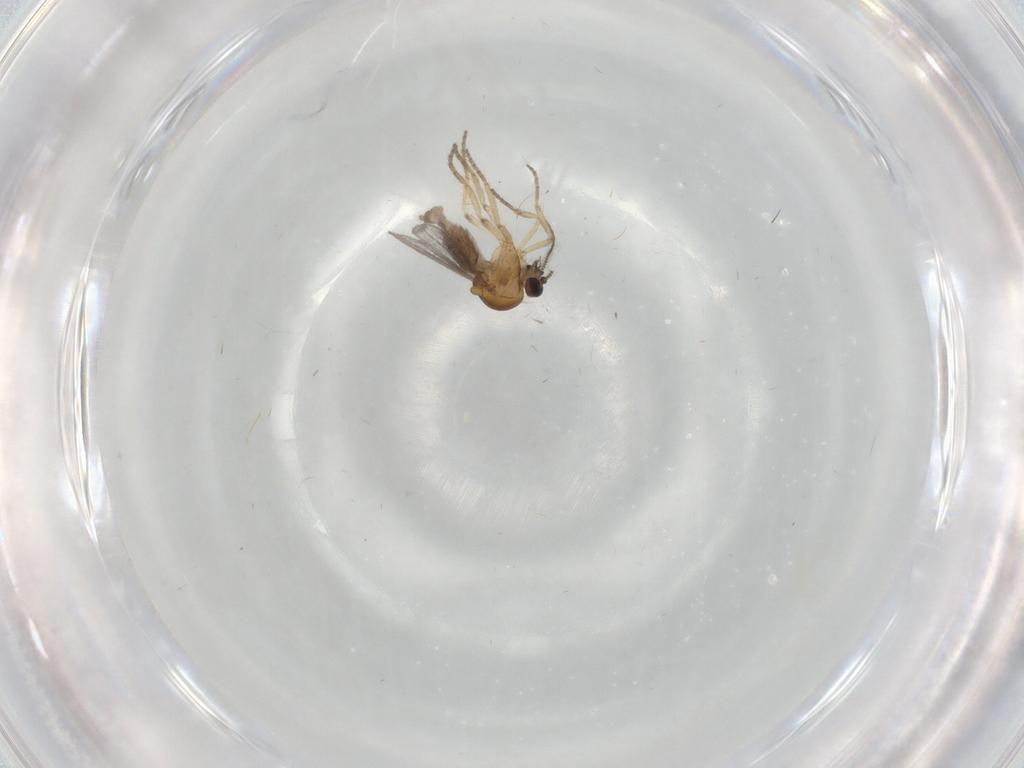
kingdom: Animalia
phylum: Arthropoda
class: Insecta
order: Diptera
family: Ceratopogonidae
